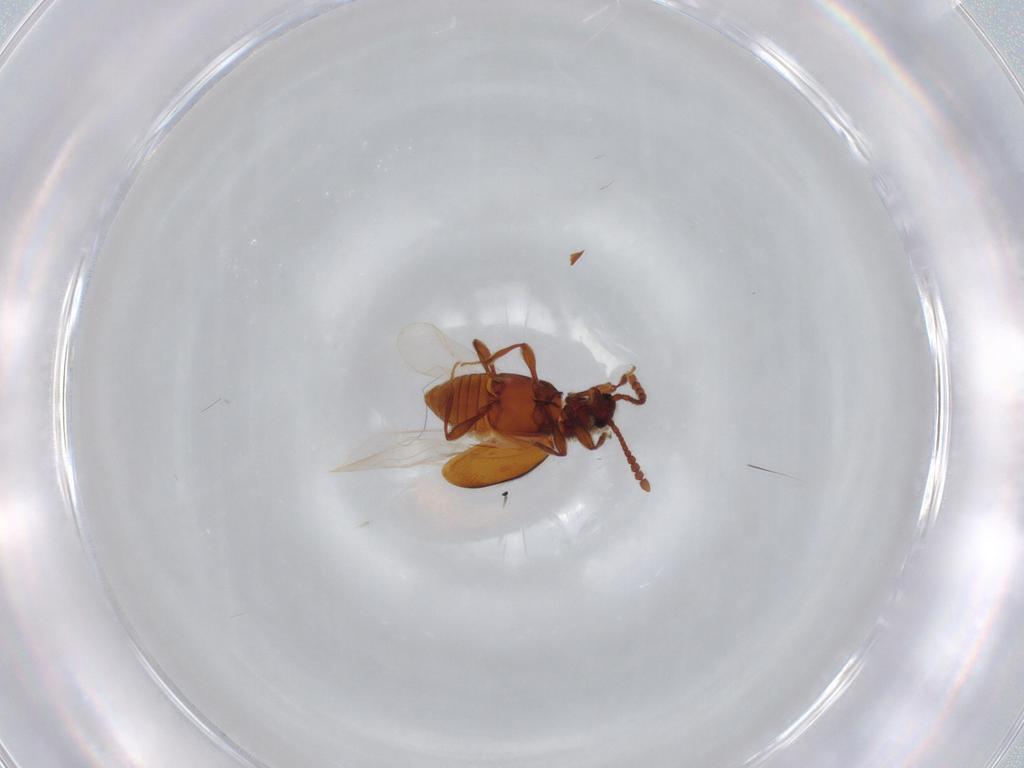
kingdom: Animalia
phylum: Arthropoda
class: Insecta
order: Coleoptera
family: Staphylinidae
